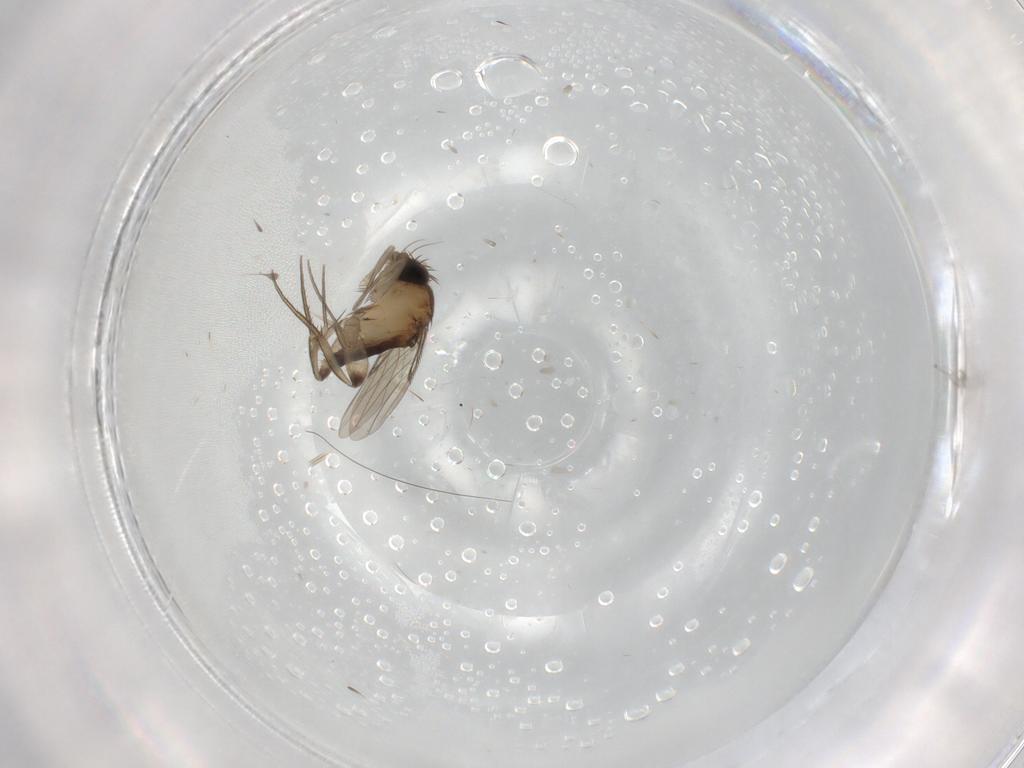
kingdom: Animalia
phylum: Arthropoda
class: Insecta
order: Diptera
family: Phoridae
